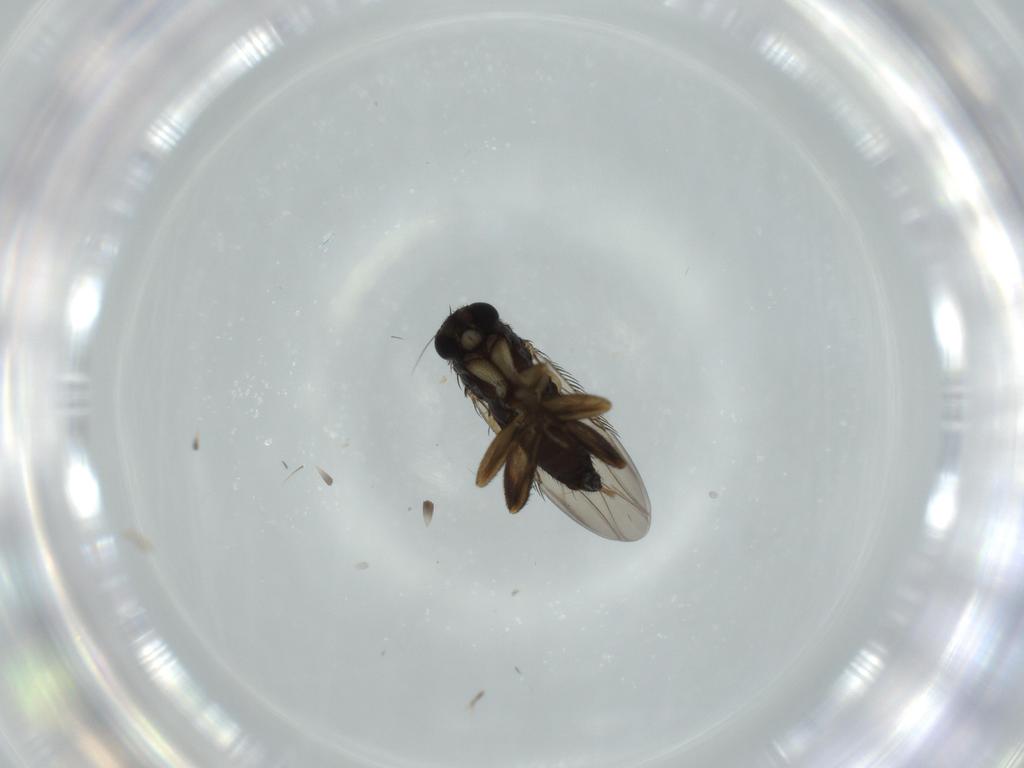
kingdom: Animalia
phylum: Arthropoda
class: Insecta
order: Diptera
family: Phoridae
